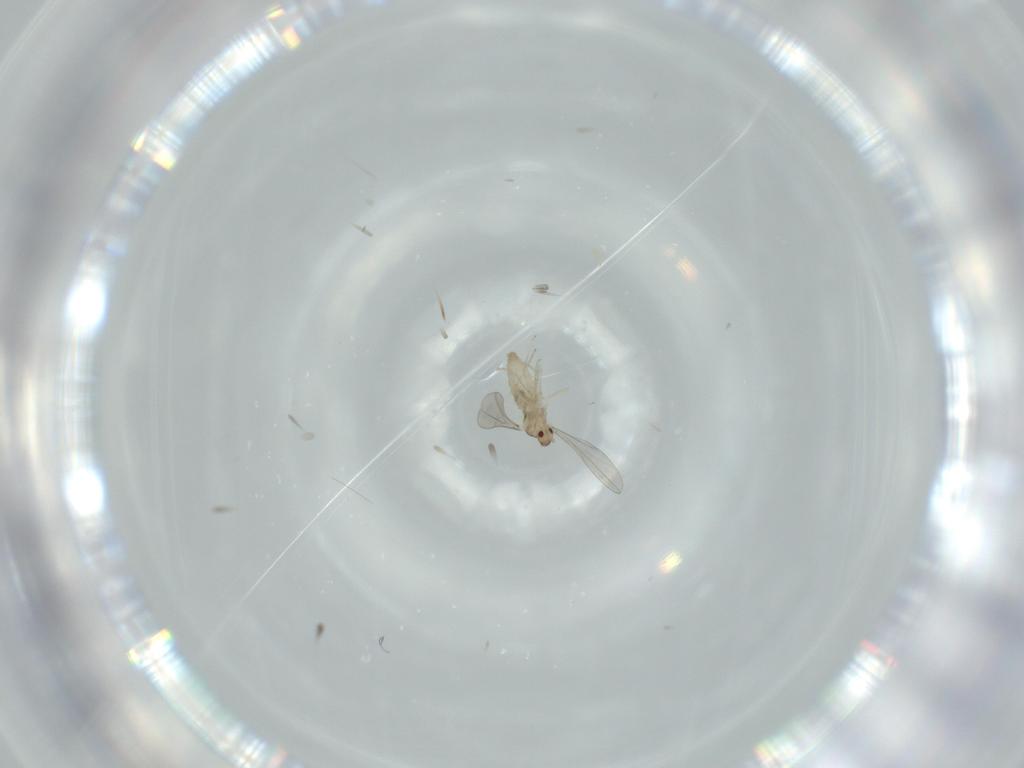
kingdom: Animalia
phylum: Arthropoda
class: Insecta
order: Diptera
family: Cecidomyiidae
